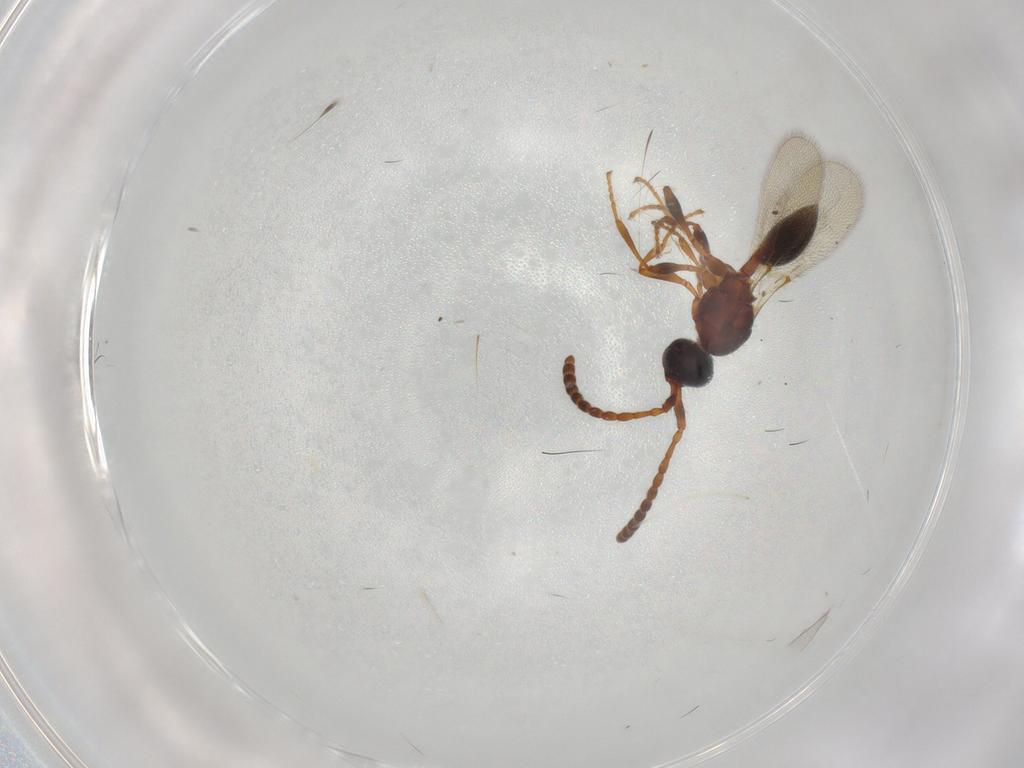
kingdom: Animalia
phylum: Arthropoda
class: Insecta
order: Hymenoptera
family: Diapriidae
